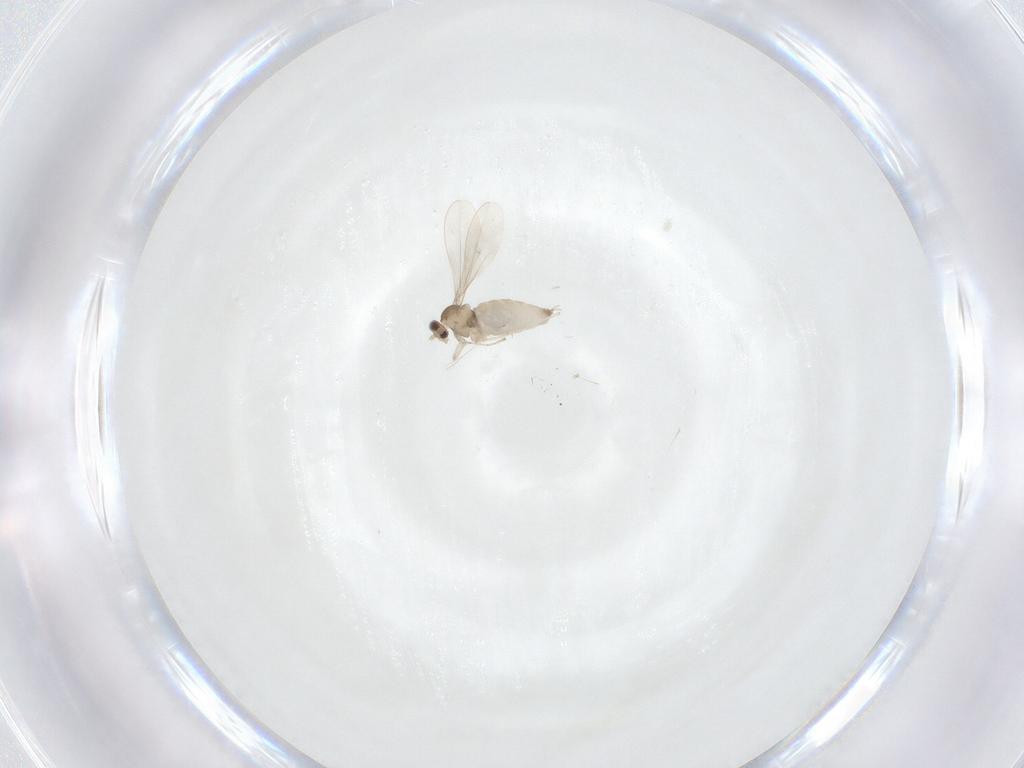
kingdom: Animalia
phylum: Arthropoda
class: Insecta
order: Diptera
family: Cecidomyiidae
